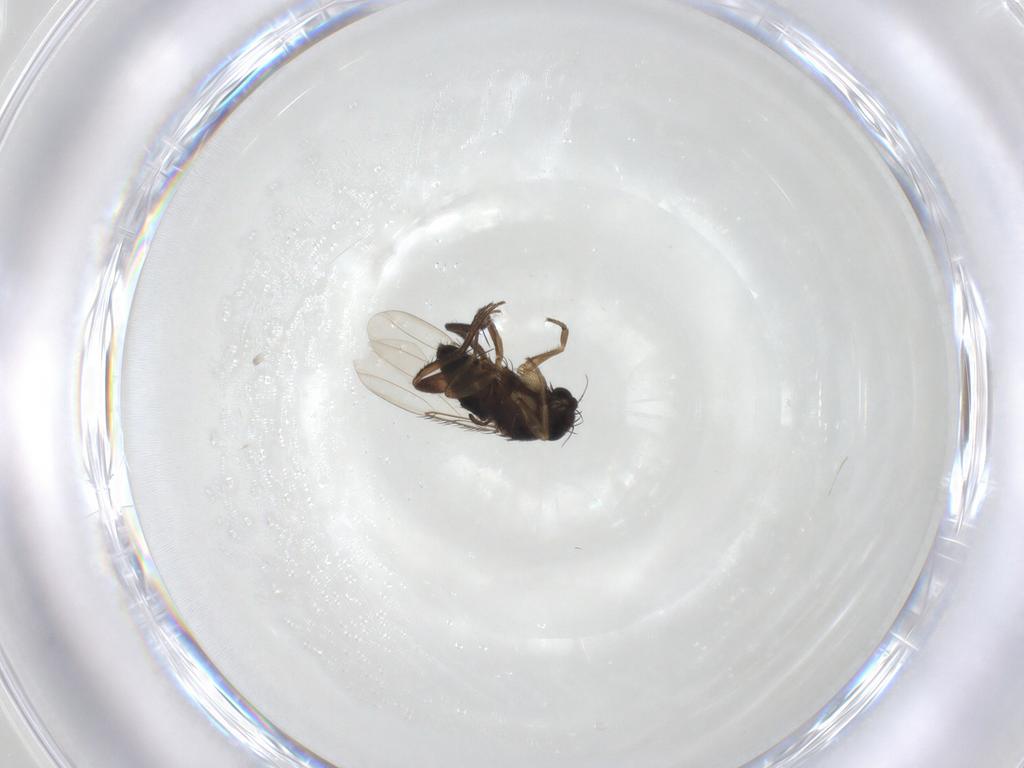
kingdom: Animalia
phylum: Arthropoda
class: Insecta
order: Diptera
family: Phoridae
